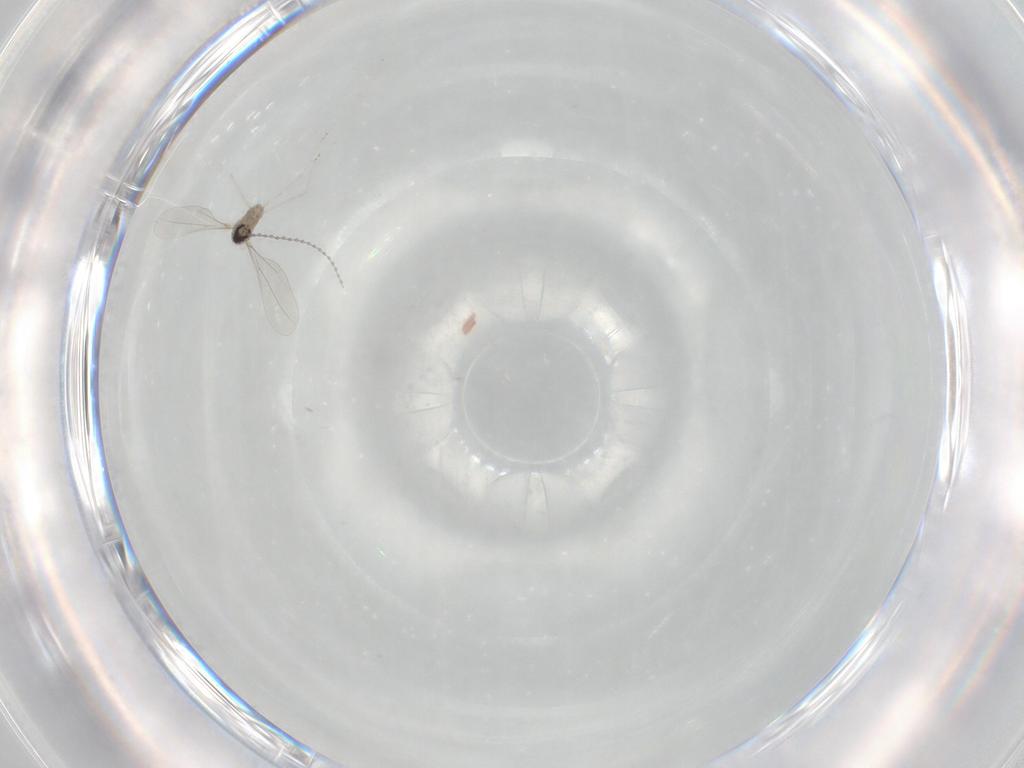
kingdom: Animalia
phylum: Arthropoda
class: Insecta
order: Diptera
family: Cecidomyiidae
